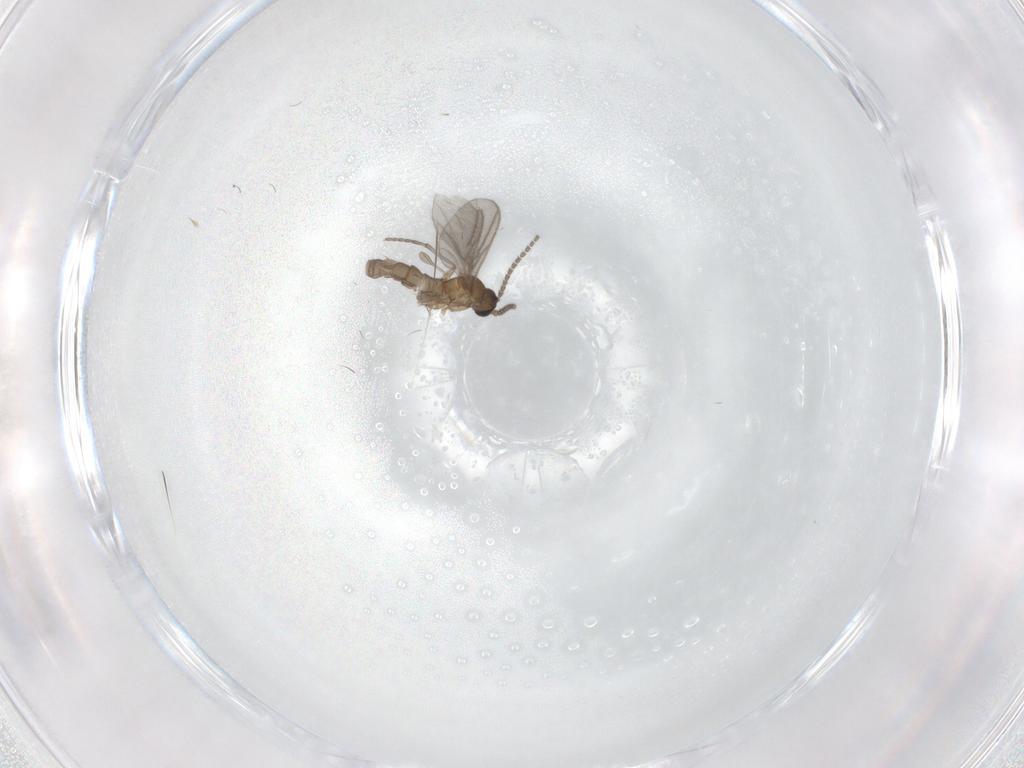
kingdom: Animalia
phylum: Arthropoda
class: Insecta
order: Diptera
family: Sciaridae
